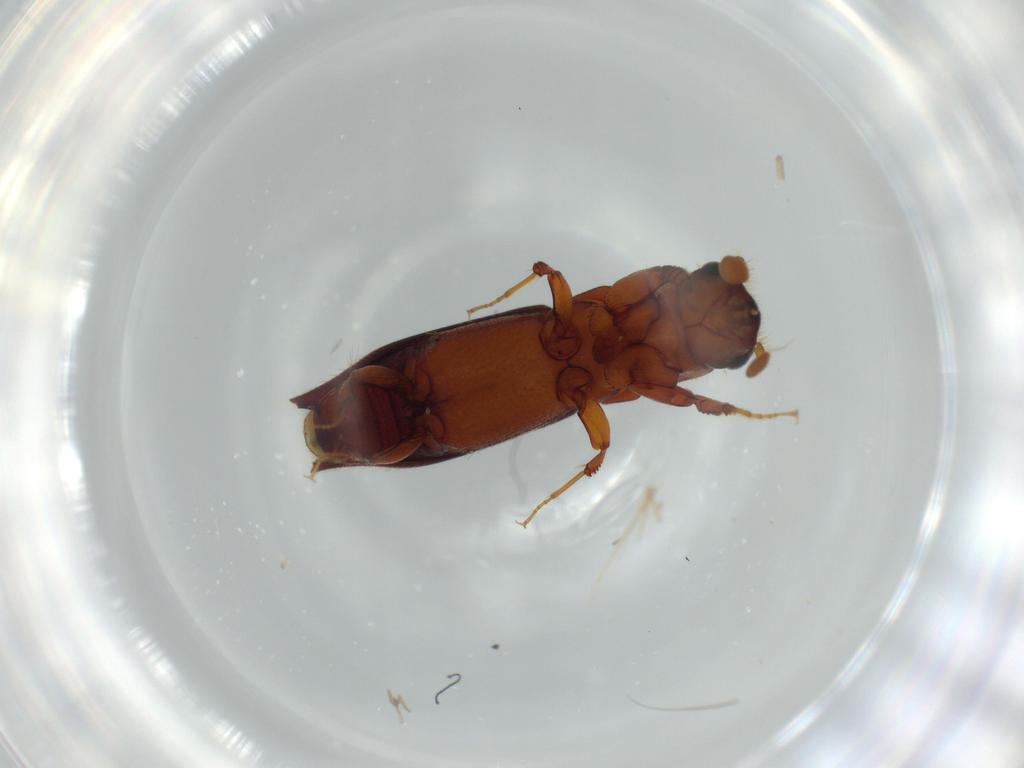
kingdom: Animalia
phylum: Arthropoda
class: Insecta
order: Coleoptera
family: Curculionidae
